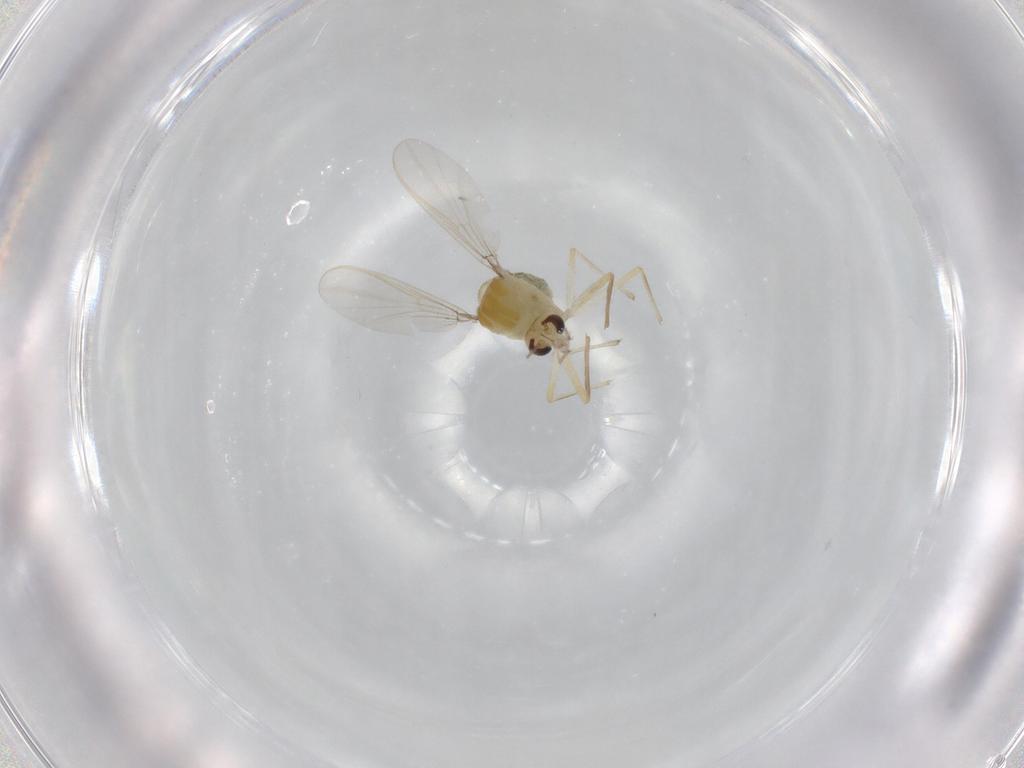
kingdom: Animalia
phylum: Arthropoda
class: Insecta
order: Diptera
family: Chironomidae
